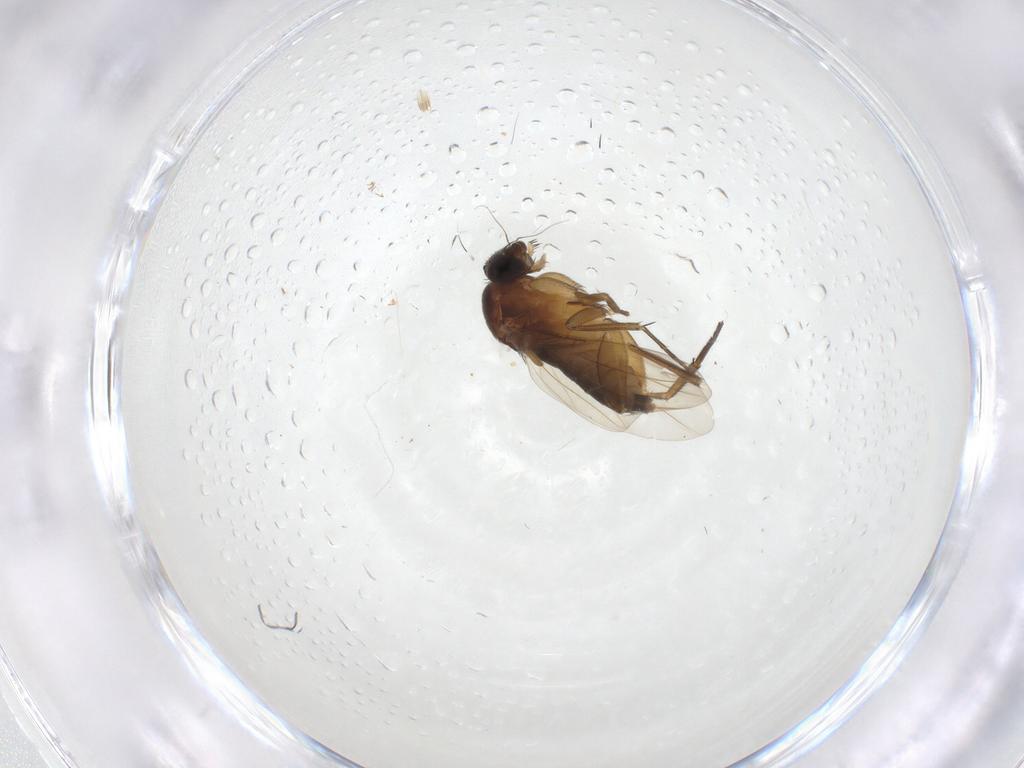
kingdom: Animalia
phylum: Arthropoda
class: Insecta
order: Diptera
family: Phoridae
